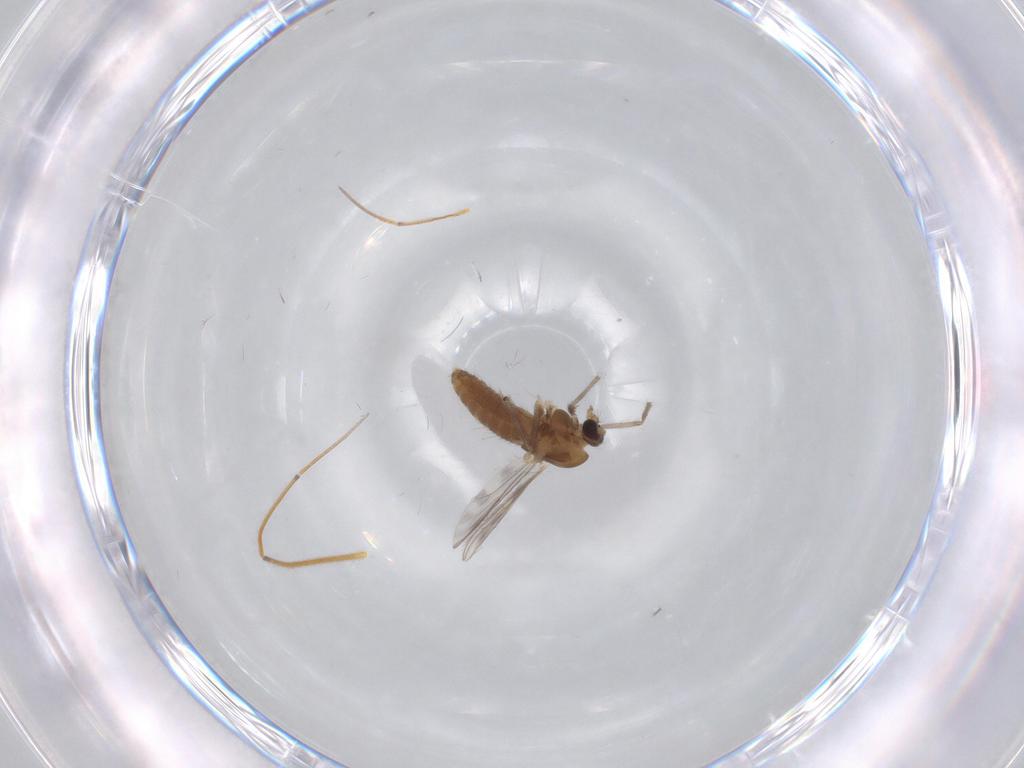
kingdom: Animalia
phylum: Arthropoda
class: Insecta
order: Diptera
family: Chironomidae
